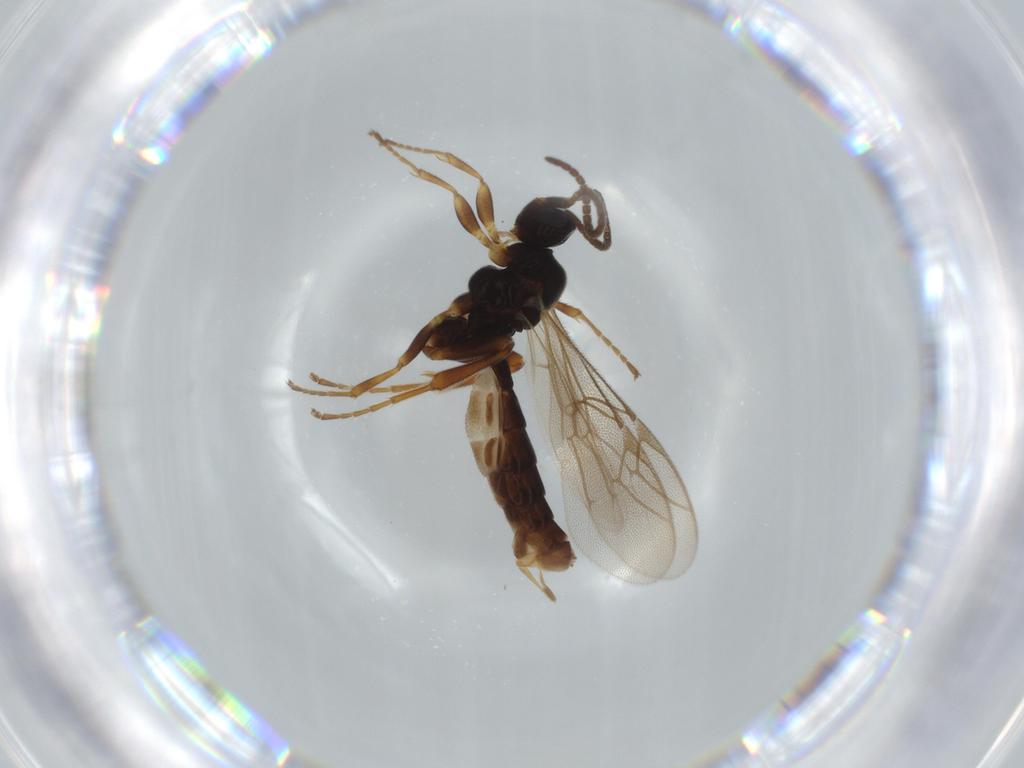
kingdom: Animalia
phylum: Arthropoda
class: Insecta
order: Hymenoptera
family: Ichneumonidae
